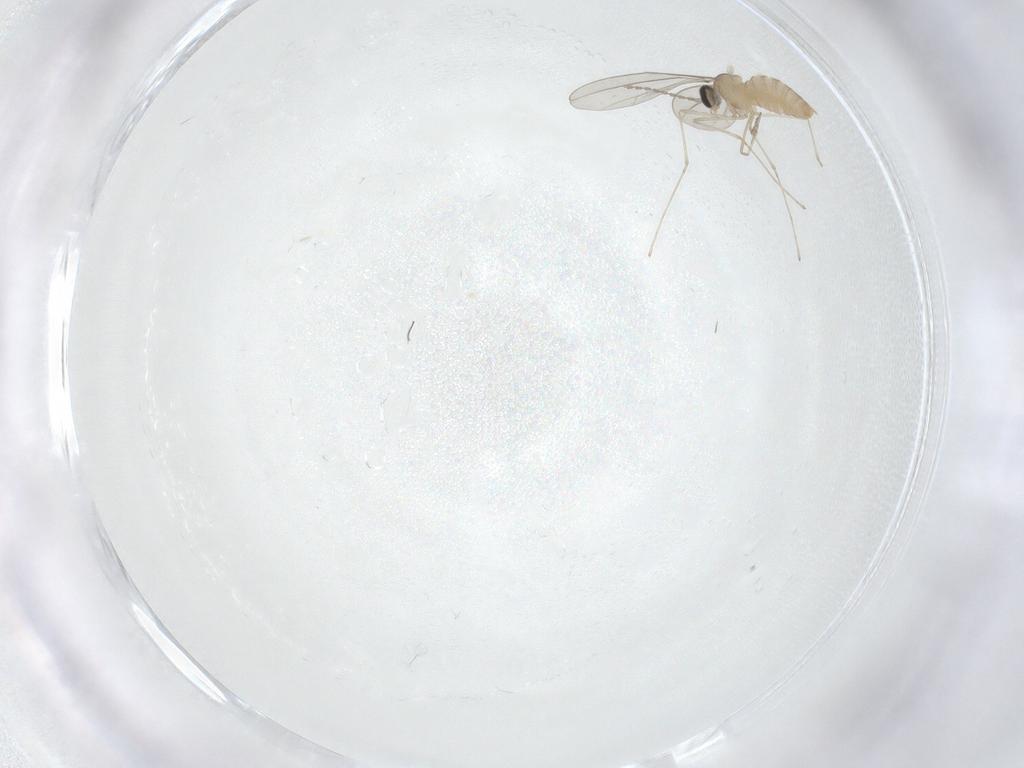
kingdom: Animalia
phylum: Arthropoda
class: Insecta
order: Diptera
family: Cecidomyiidae
